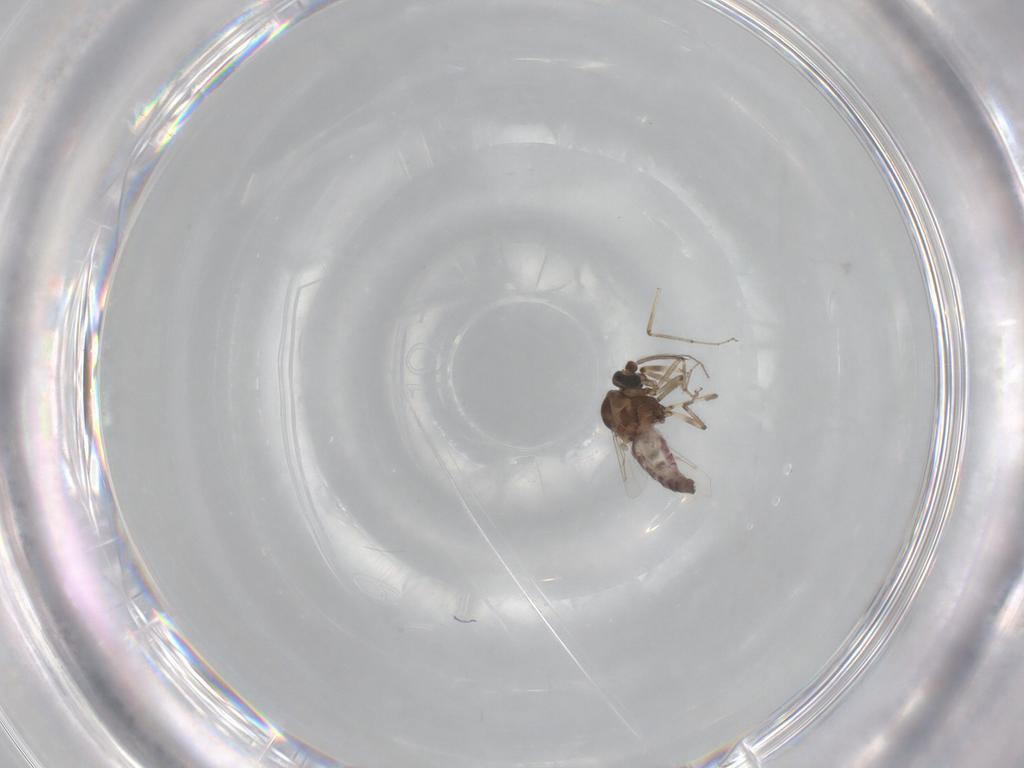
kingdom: Animalia
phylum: Arthropoda
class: Insecta
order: Diptera
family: Ceratopogonidae
